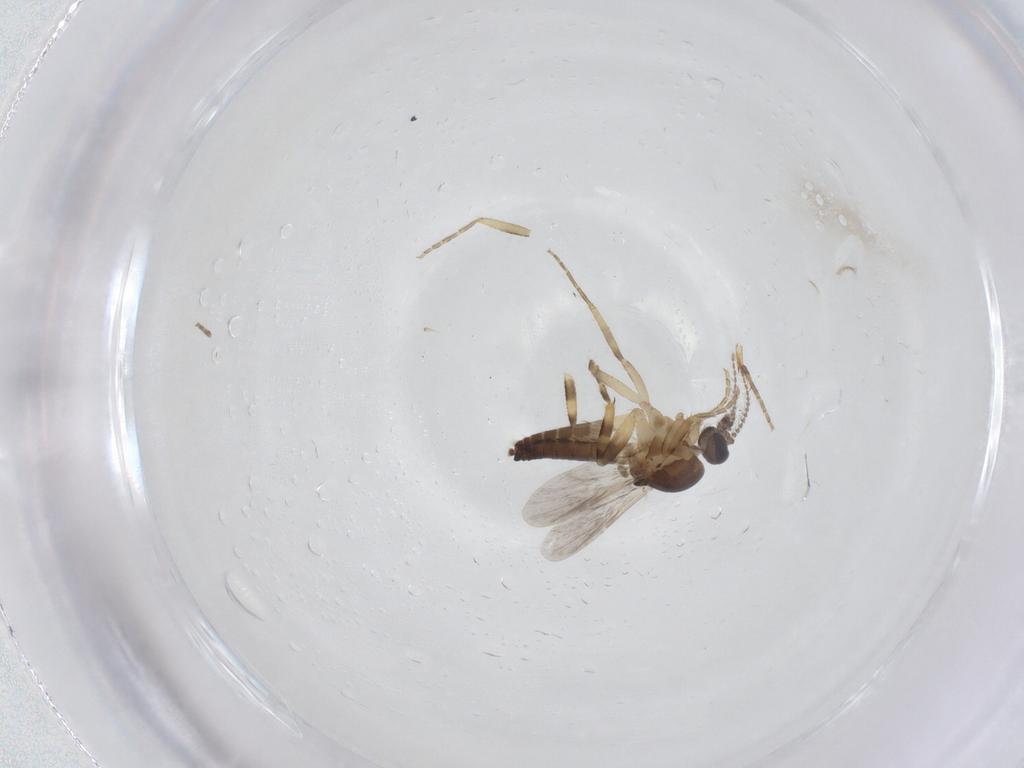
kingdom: Animalia
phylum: Arthropoda
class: Insecta
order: Diptera
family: Ceratopogonidae
